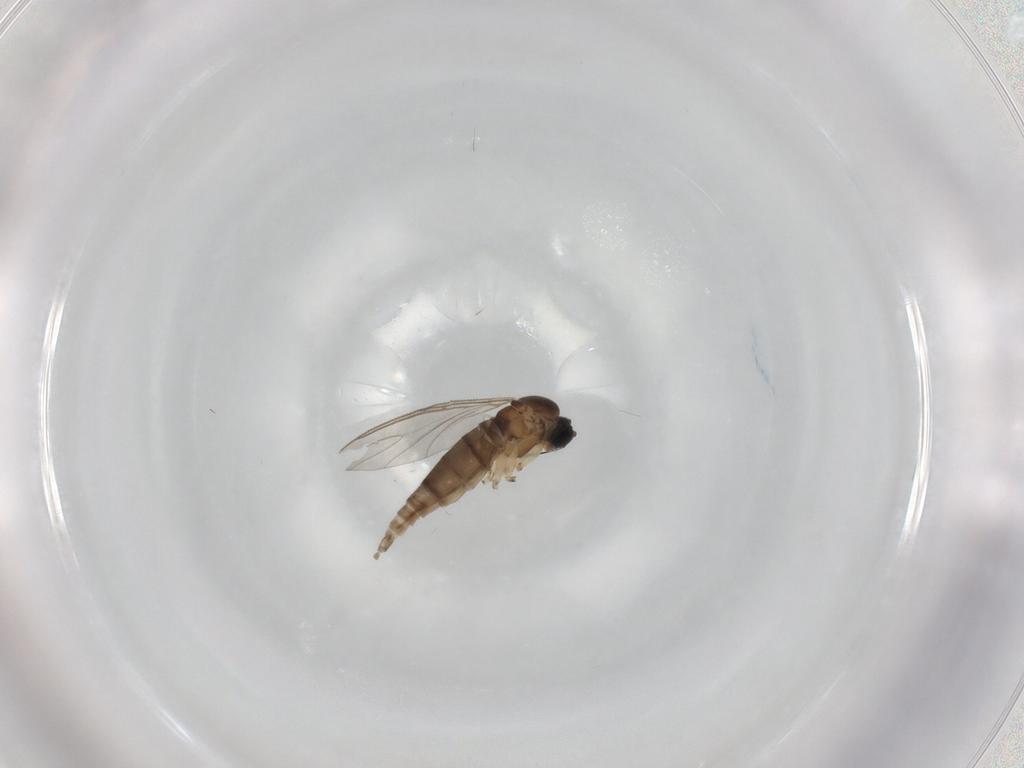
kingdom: Animalia
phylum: Arthropoda
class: Insecta
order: Diptera
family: Sciaridae
